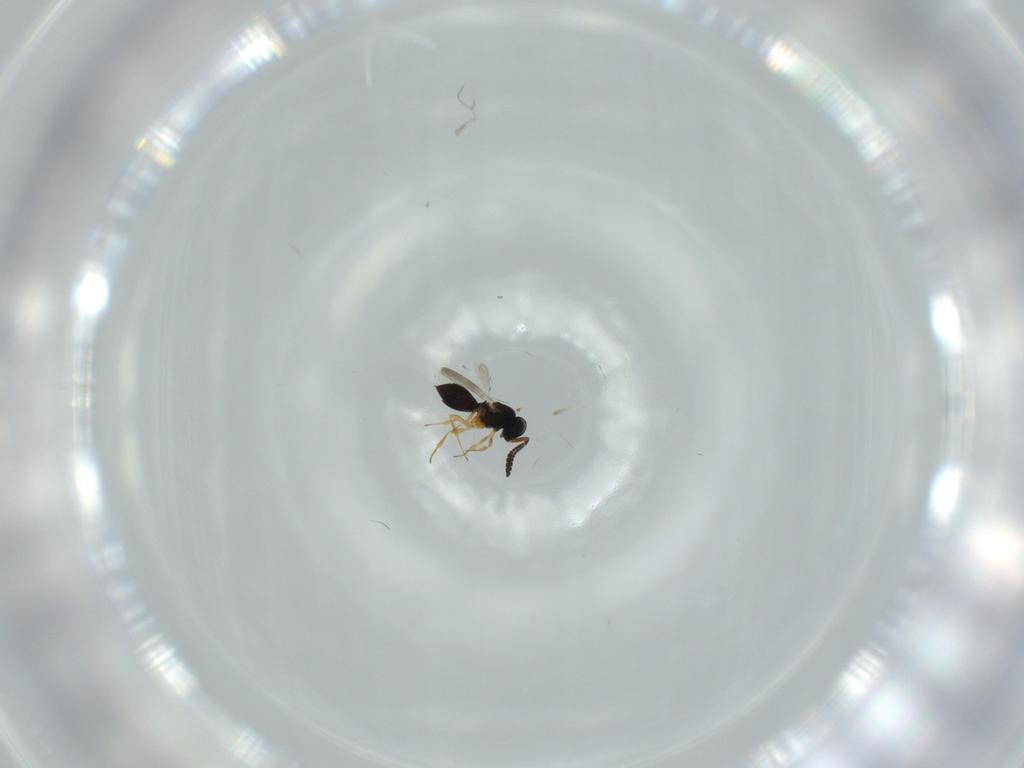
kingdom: Animalia
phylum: Arthropoda
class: Insecta
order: Hymenoptera
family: Scelionidae
